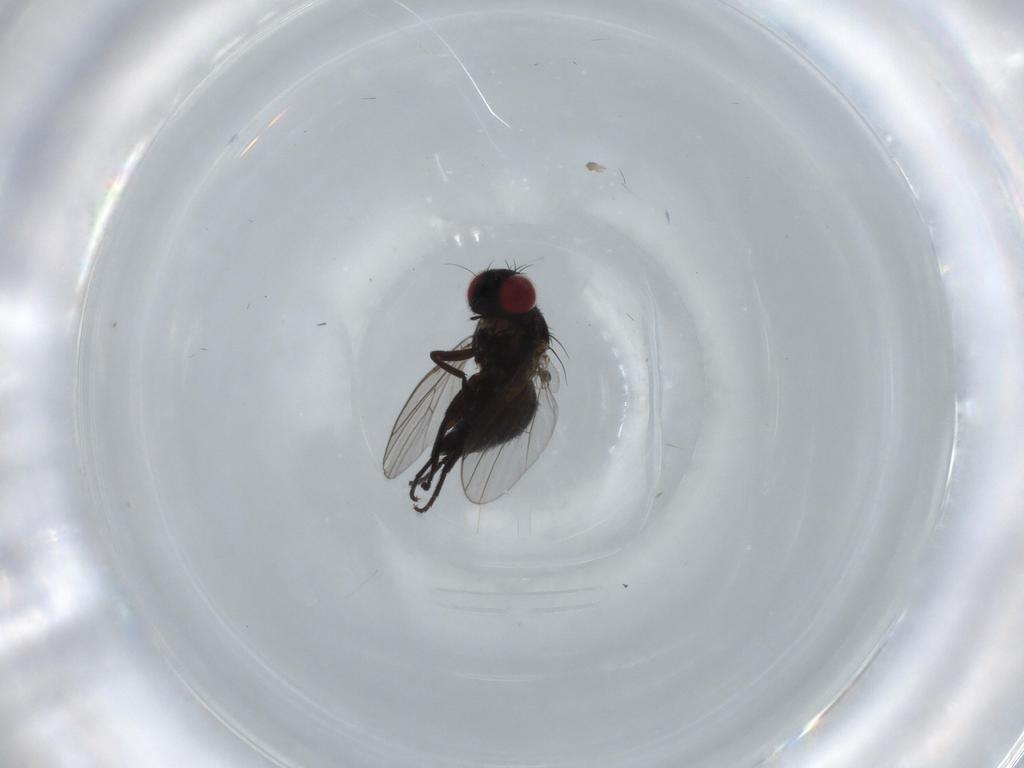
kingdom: Animalia
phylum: Arthropoda
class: Insecta
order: Diptera
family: Agromyzidae
